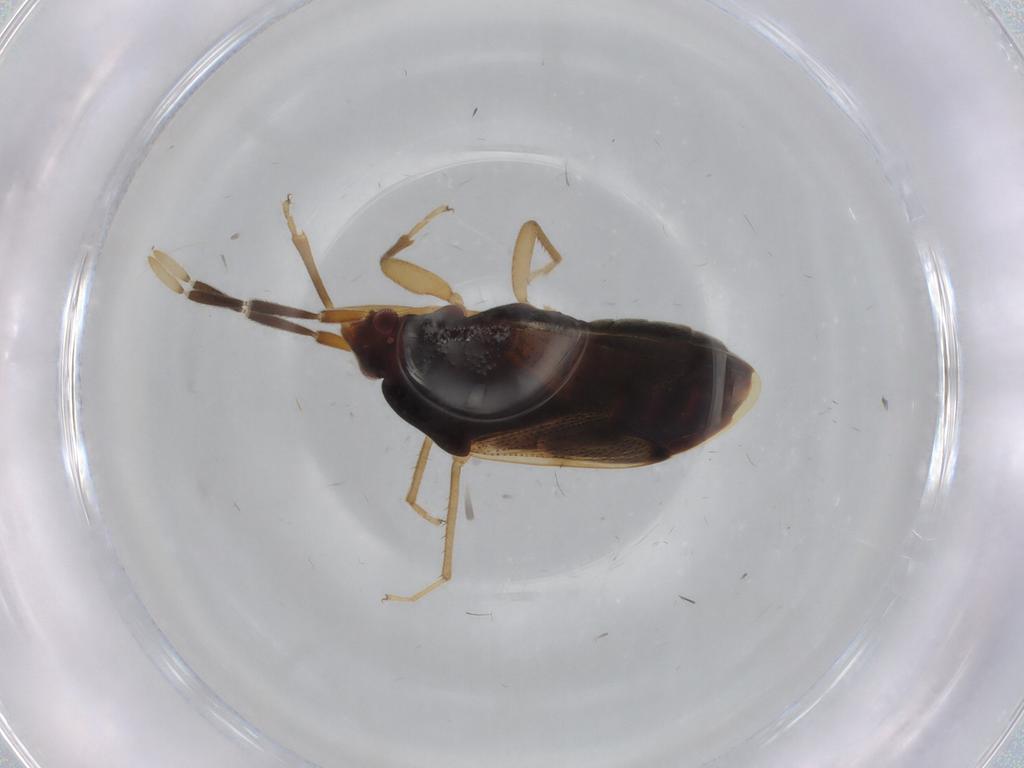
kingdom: Animalia
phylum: Arthropoda
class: Insecta
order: Hemiptera
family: Rhyparochromidae
